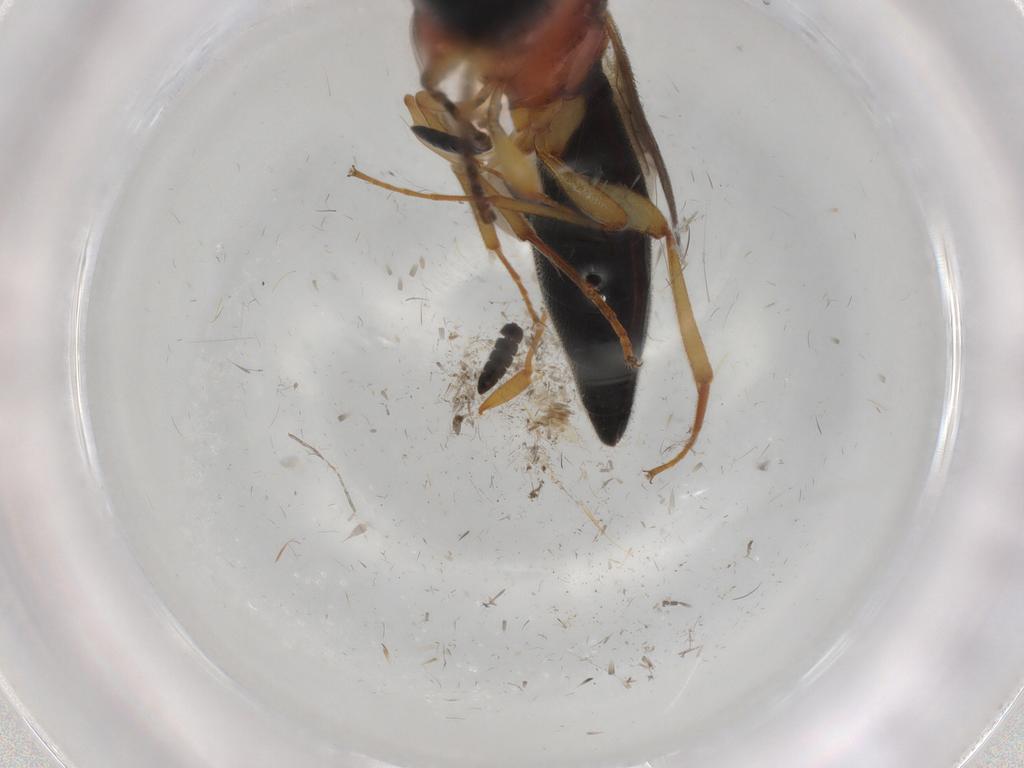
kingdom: Animalia
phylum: Arthropoda
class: Insecta
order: Hymenoptera
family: Scelionidae
